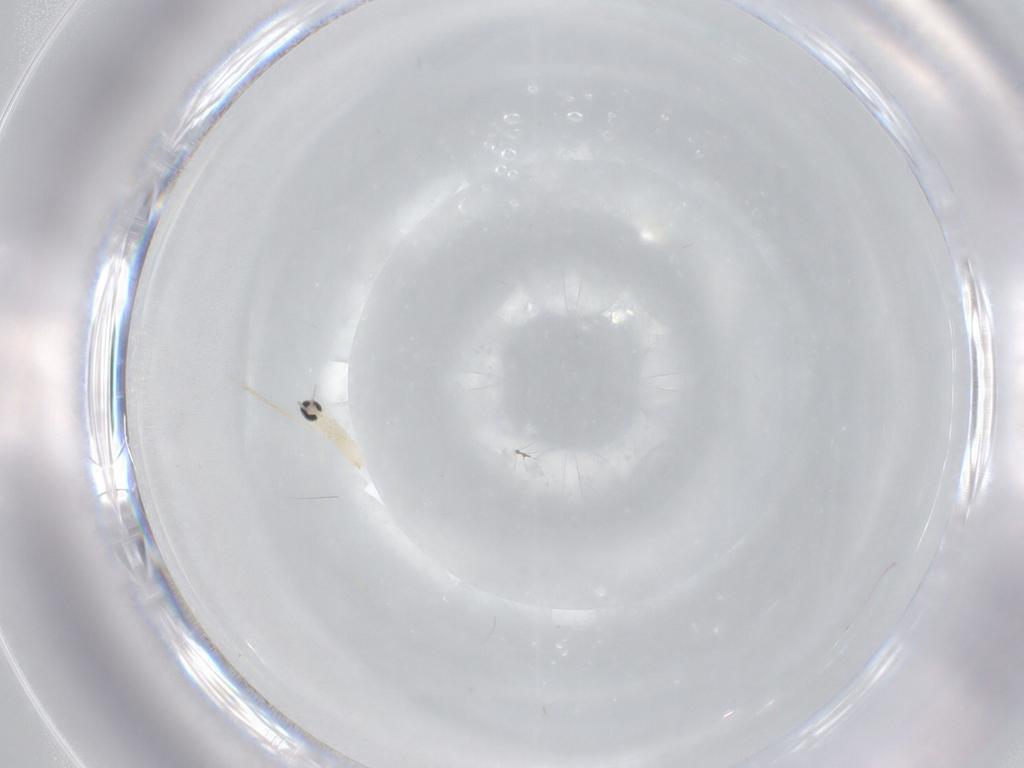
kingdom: Animalia
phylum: Arthropoda
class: Insecta
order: Diptera
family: Cecidomyiidae
